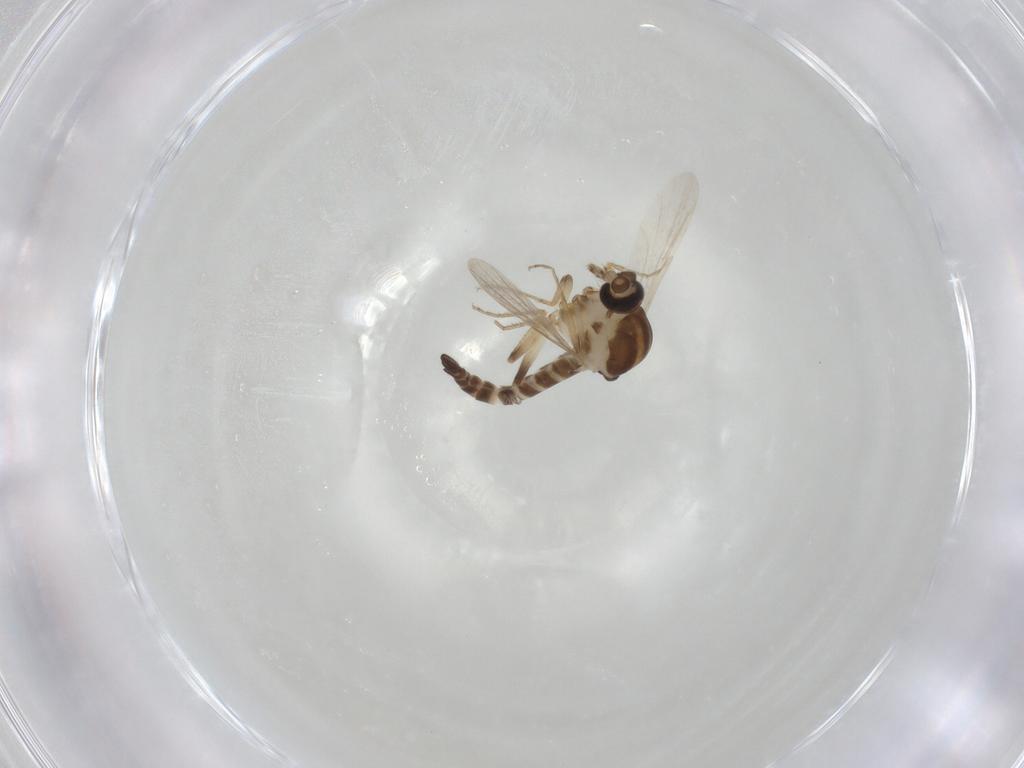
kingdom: Animalia
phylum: Arthropoda
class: Insecta
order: Diptera
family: Ceratopogonidae
